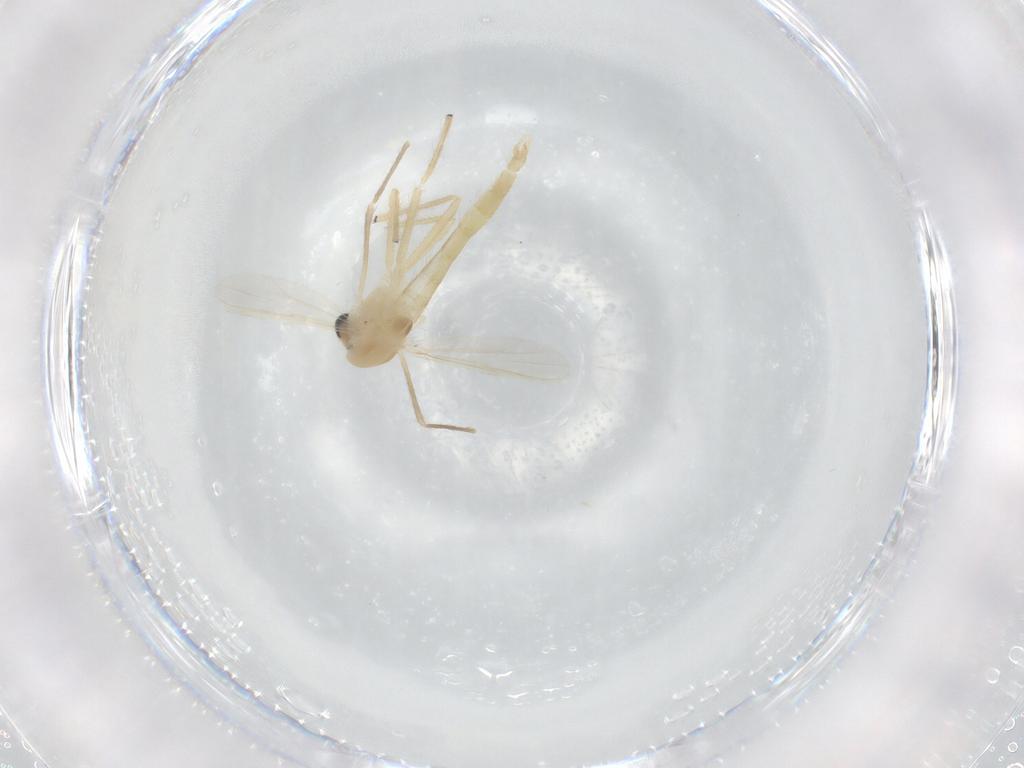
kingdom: Animalia
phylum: Arthropoda
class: Insecta
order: Diptera
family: Chironomidae
